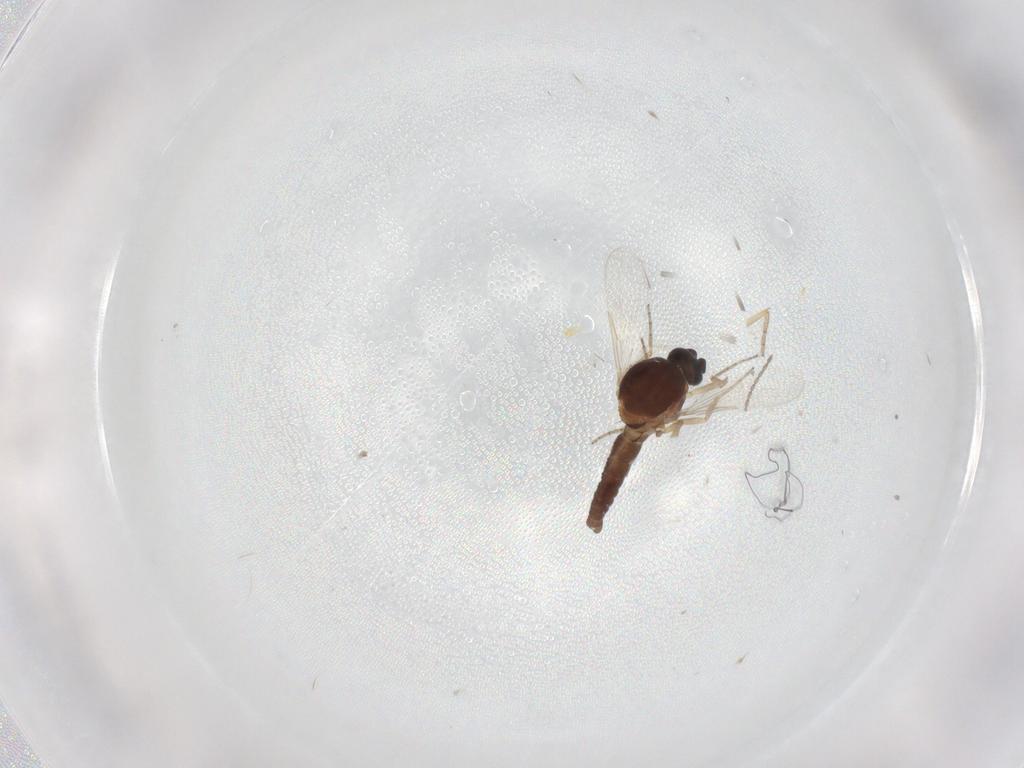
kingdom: Animalia
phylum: Arthropoda
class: Insecta
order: Diptera
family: Ceratopogonidae
